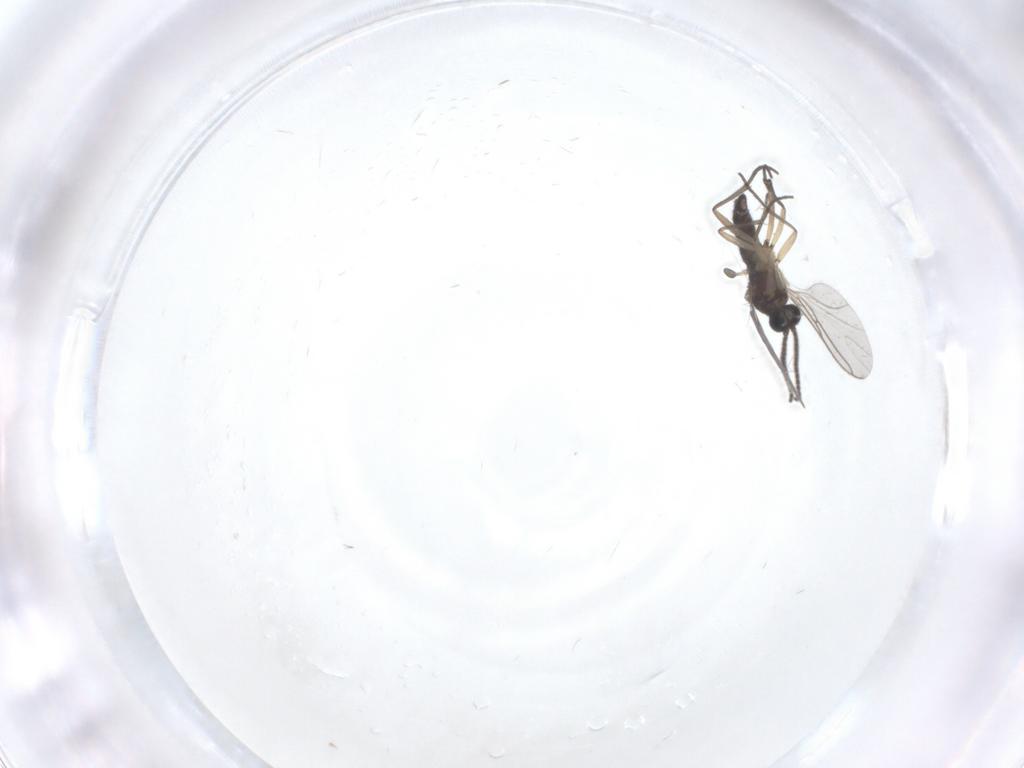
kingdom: Animalia
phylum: Arthropoda
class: Insecta
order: Diptera
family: Sciaridae
